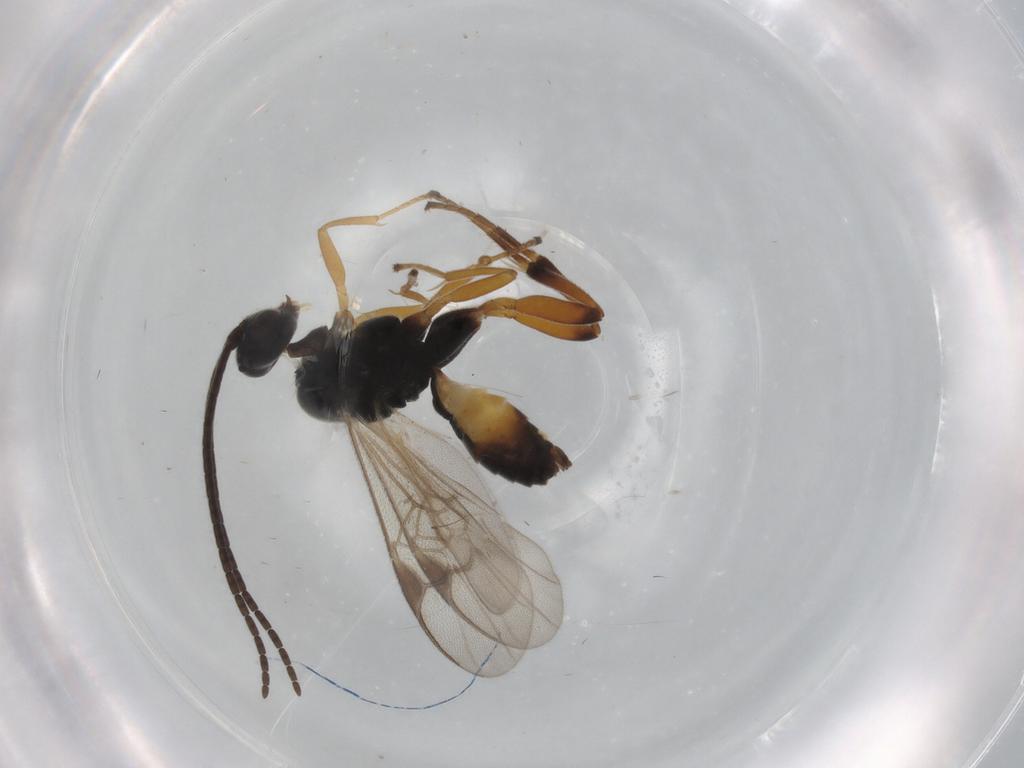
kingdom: Animalia
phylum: Arthropoda
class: Insecta
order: Hymenoptera
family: Braconidae
